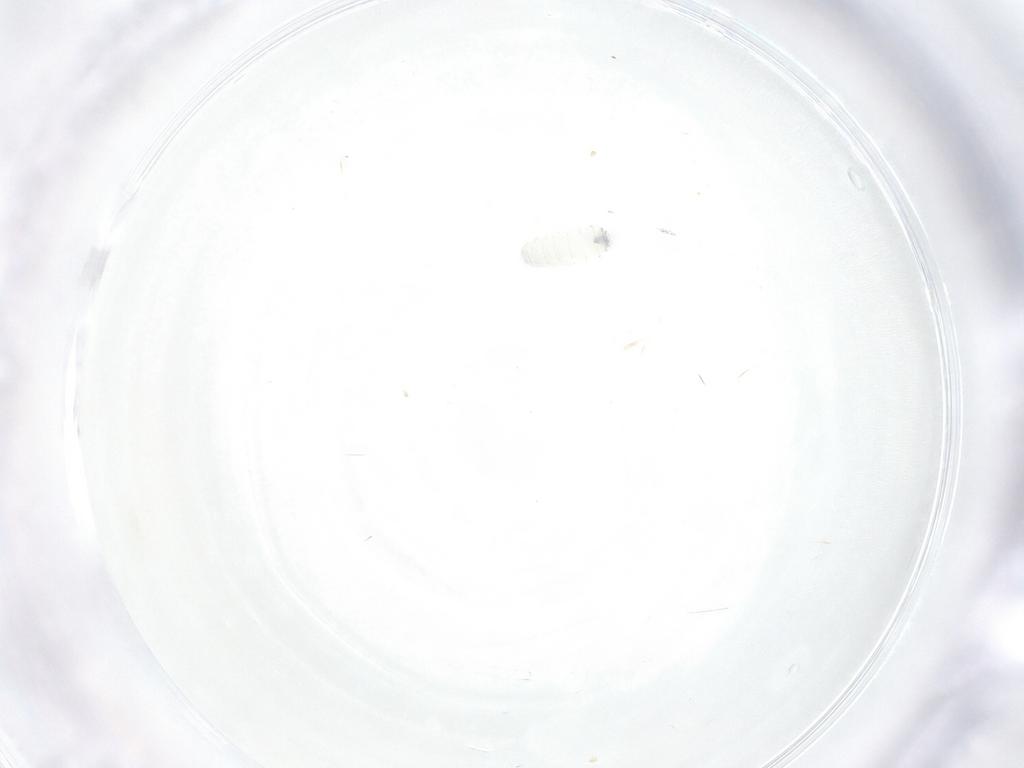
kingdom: Animalia
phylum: Arthropoda
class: Insecta
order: Diptera
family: Tachinidae
